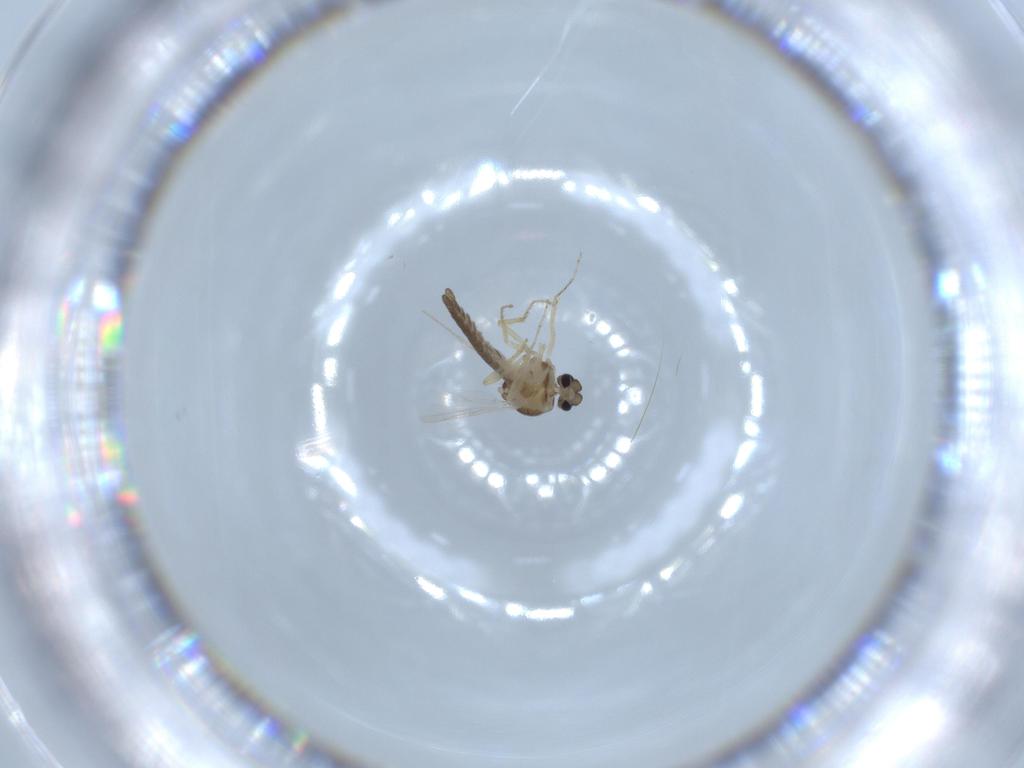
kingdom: Animalia
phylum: Arthropoda
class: Insecta
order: Diptera
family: Ceratopogonidae
